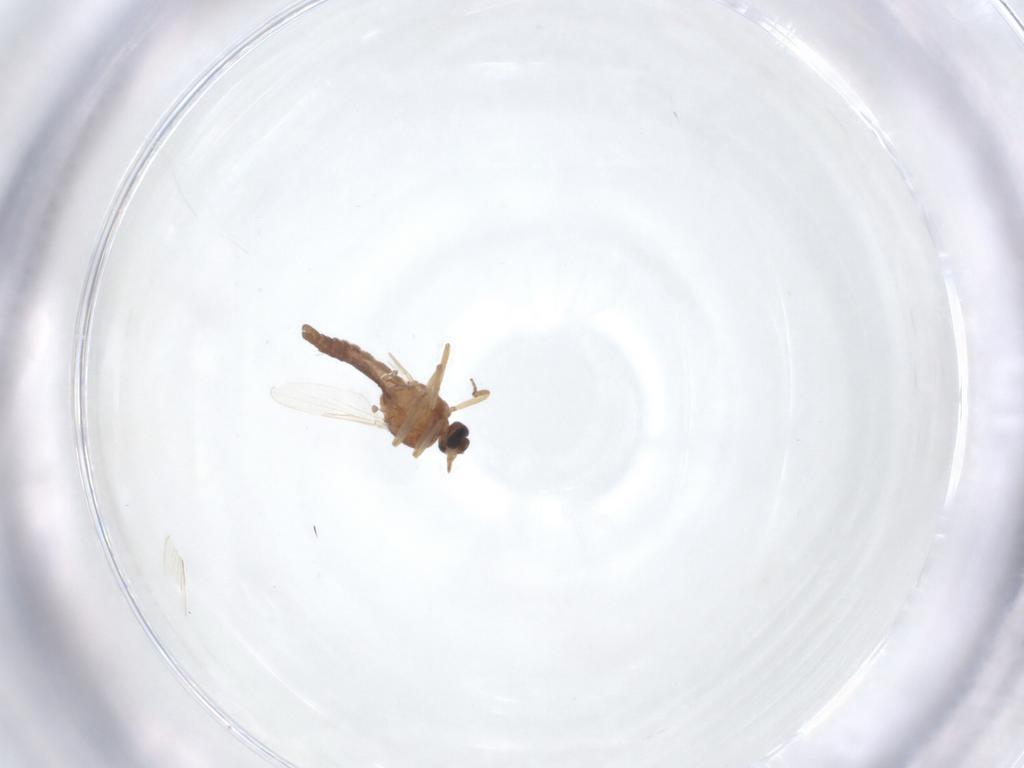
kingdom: Animalia
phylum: Arthropoda
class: Insecta
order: Diptera
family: Ceratopogonidae
